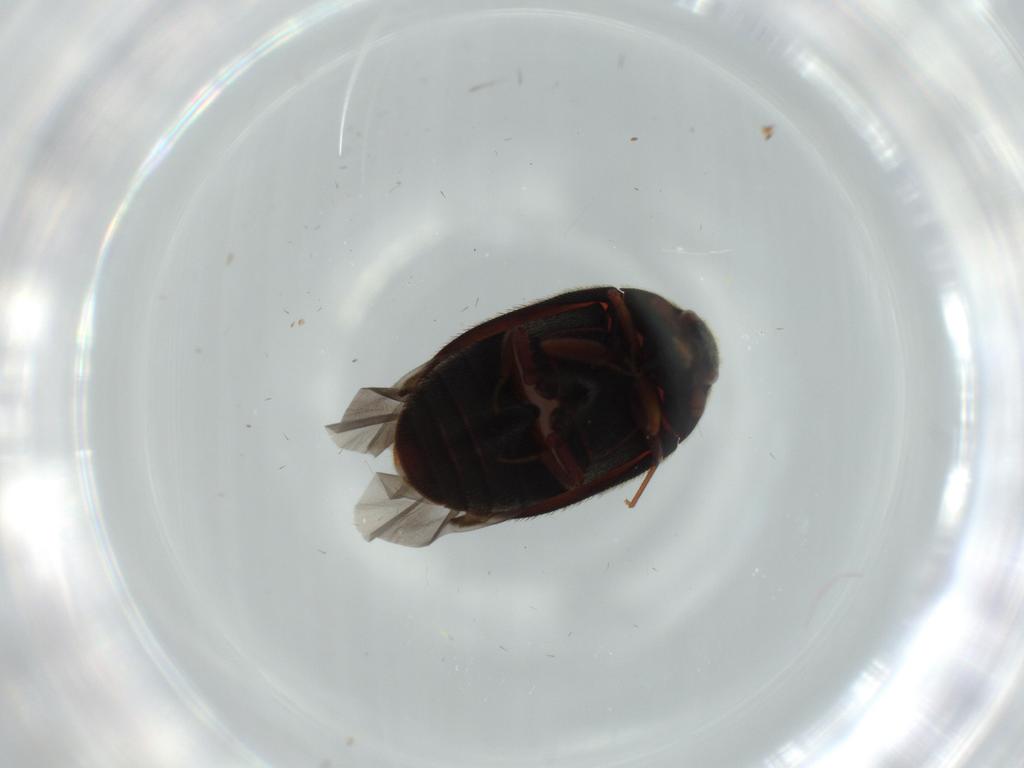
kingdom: Animalia
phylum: Arthropoda
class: Insecta
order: Coleoptera
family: Dermestidae
